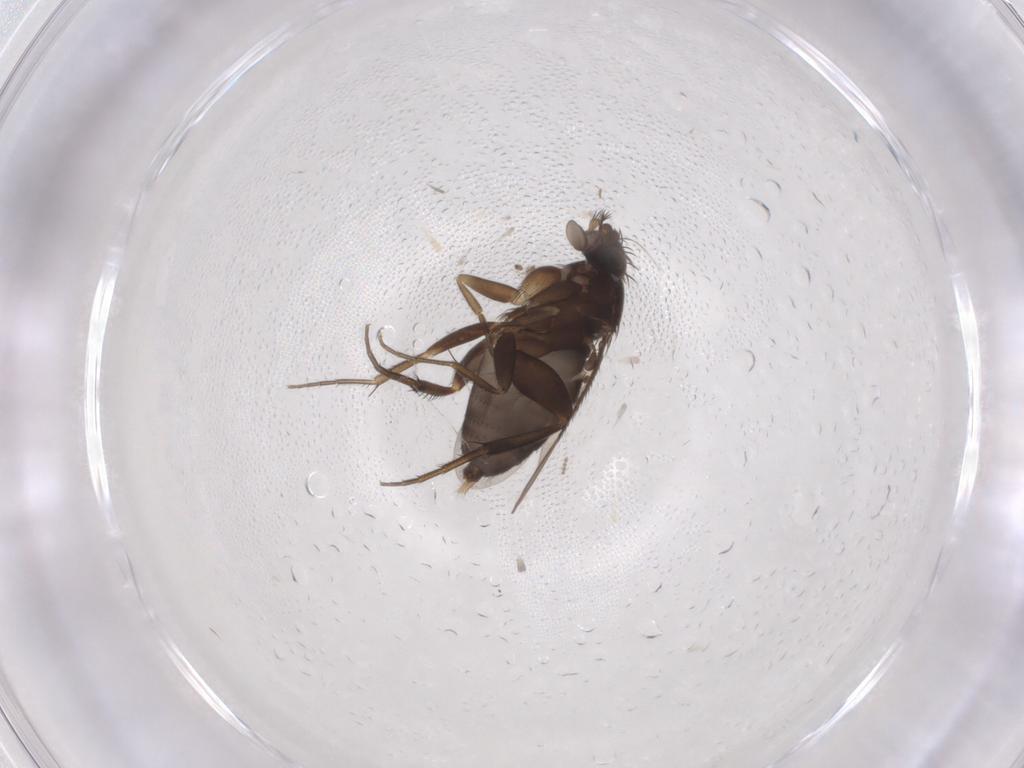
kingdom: Animalia
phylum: Arthropoda
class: Insecta
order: Diptera
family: Phoridae
